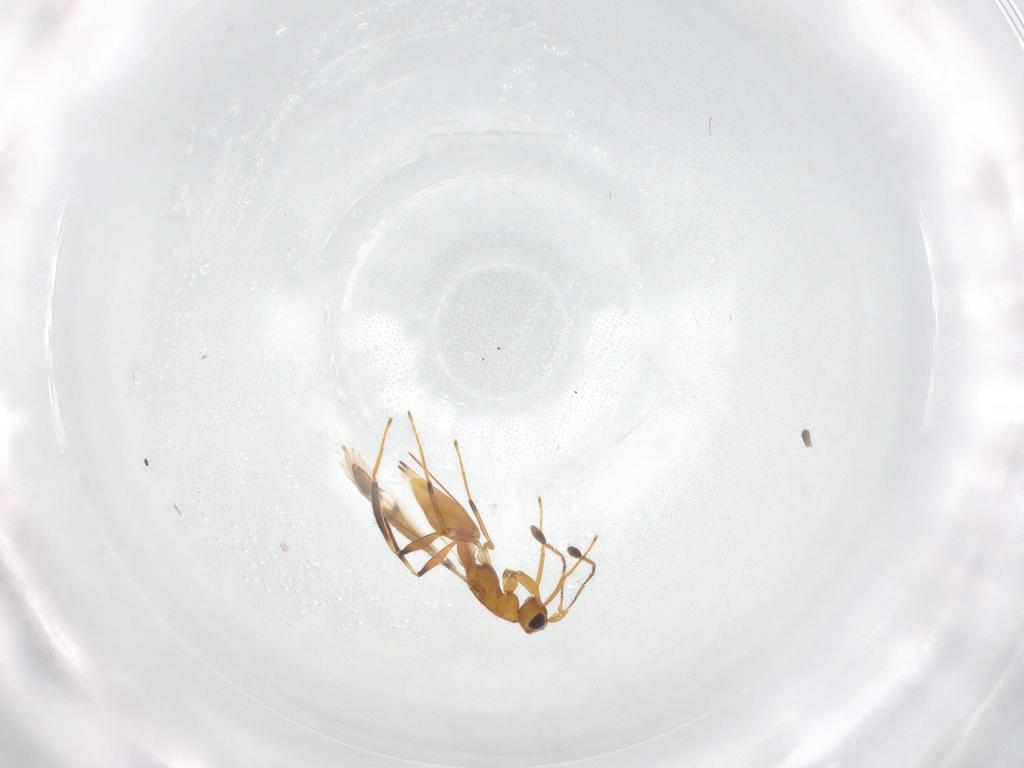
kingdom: Animalia
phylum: Arthropoda
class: Insecta
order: Hymenoptera
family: Mymaridae
